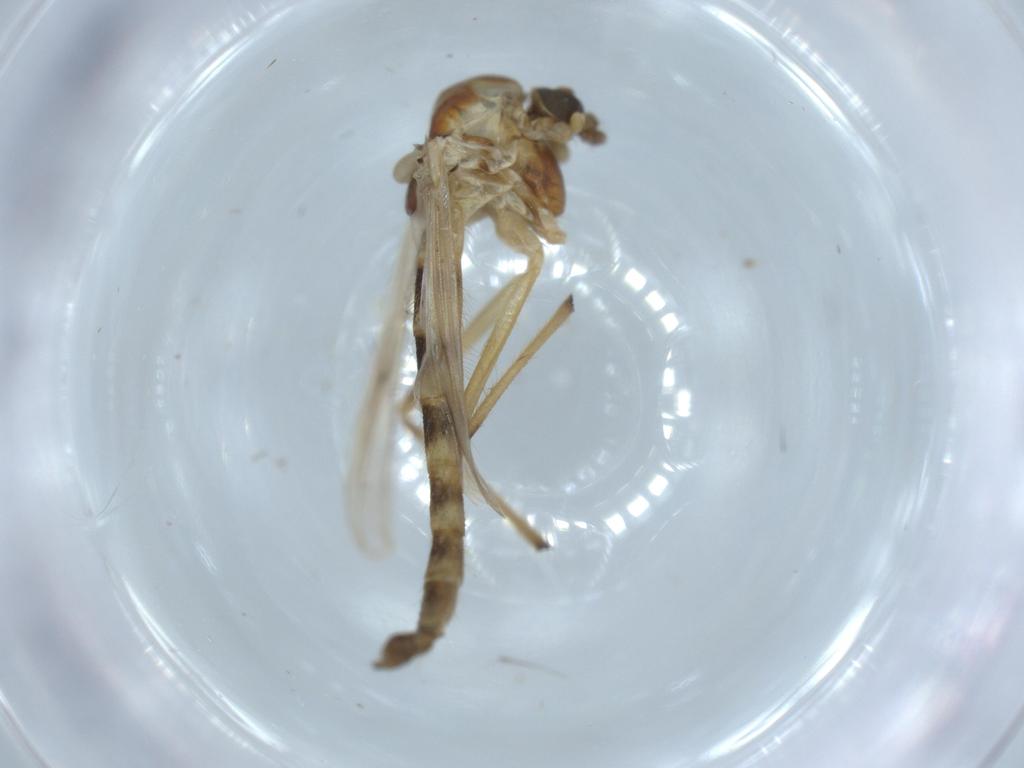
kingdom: Animalia
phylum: Arthropoda
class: Insecta
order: Diptera
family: Chironomidae
